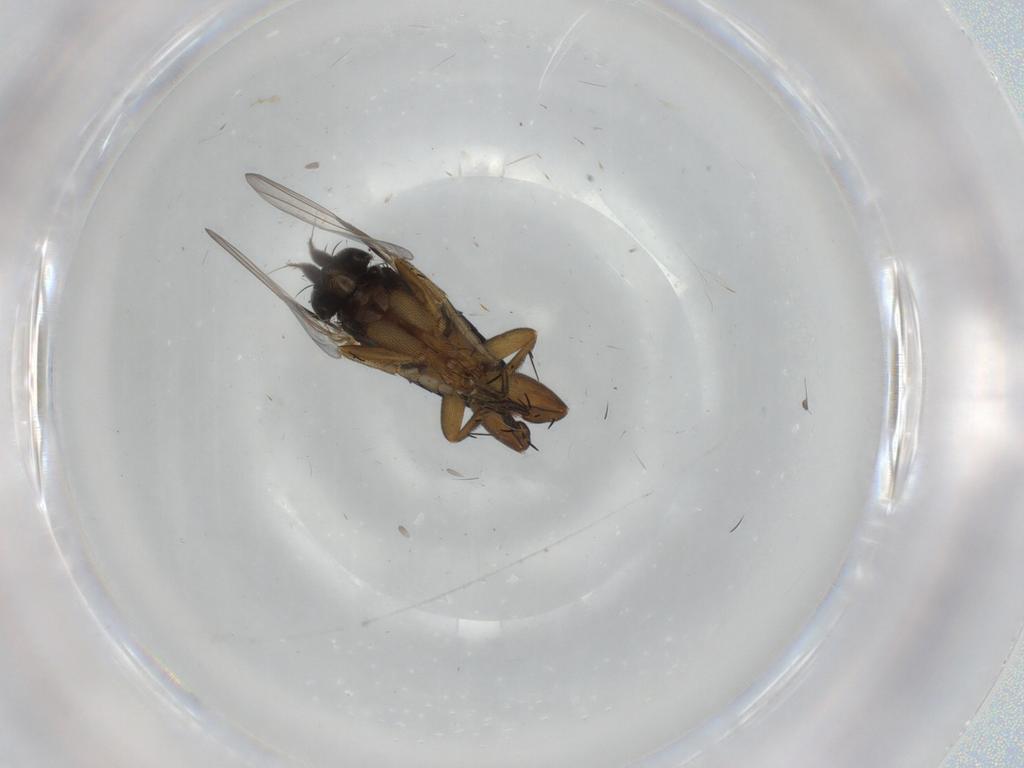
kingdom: Animalia
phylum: Arthropoda
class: Insecta
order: Diptera
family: Phoridae
